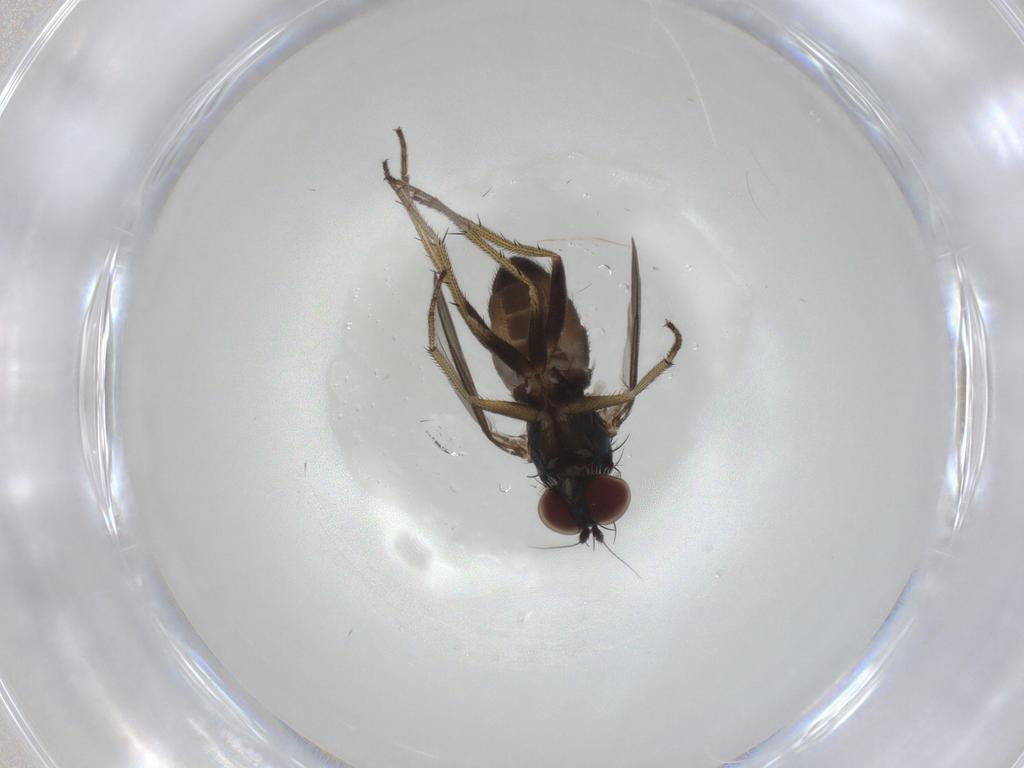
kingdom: Animalia
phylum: Arthropoda
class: Insecta
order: Diptera
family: Dolichopodidae
